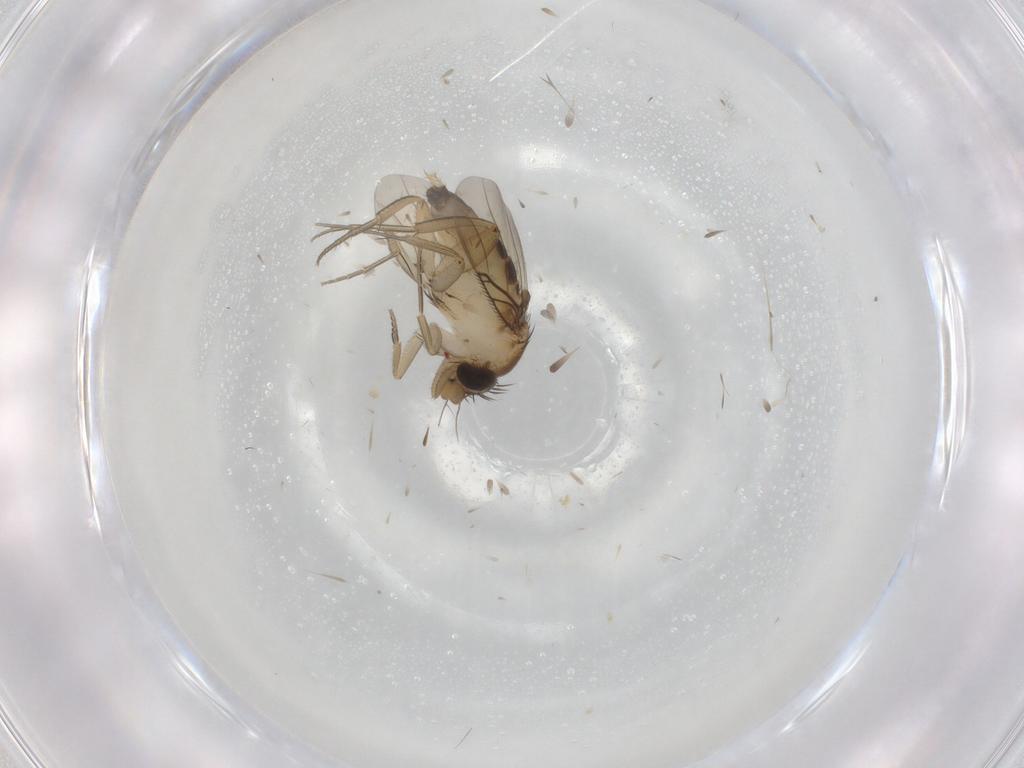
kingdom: Animalia
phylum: Arthropoda
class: Insecta
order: Diptera
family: Phoridae
